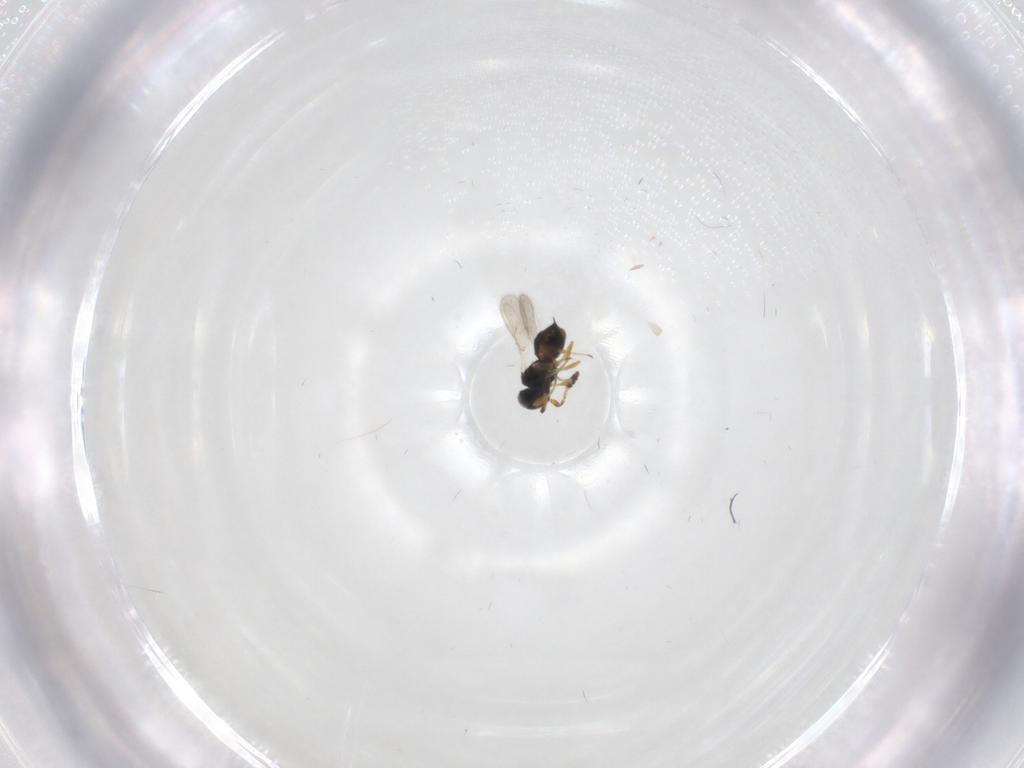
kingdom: Animalia
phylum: Arthropoda
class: Insecta
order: Hymenoptera
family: Scelionidae
